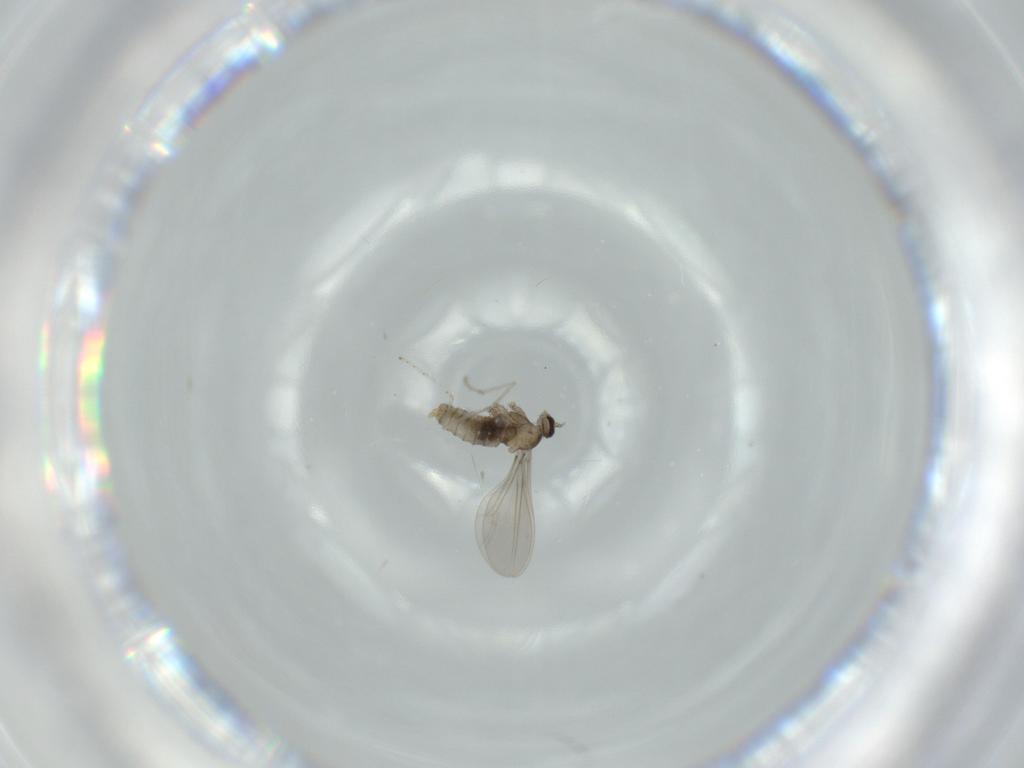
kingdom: Animalia
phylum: Arthropoda
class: Insecta
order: Diptera
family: Cecidomyiidae
